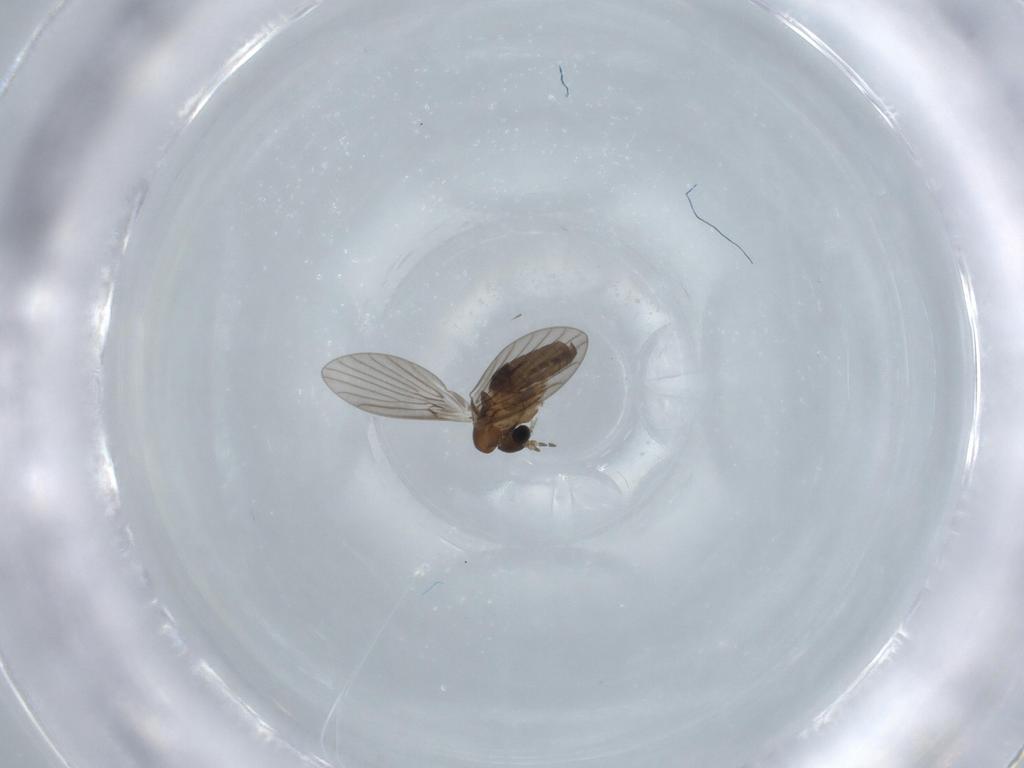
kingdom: Animalia
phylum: Arthropoda
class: Insecta
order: Diptera
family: Psychodidae
